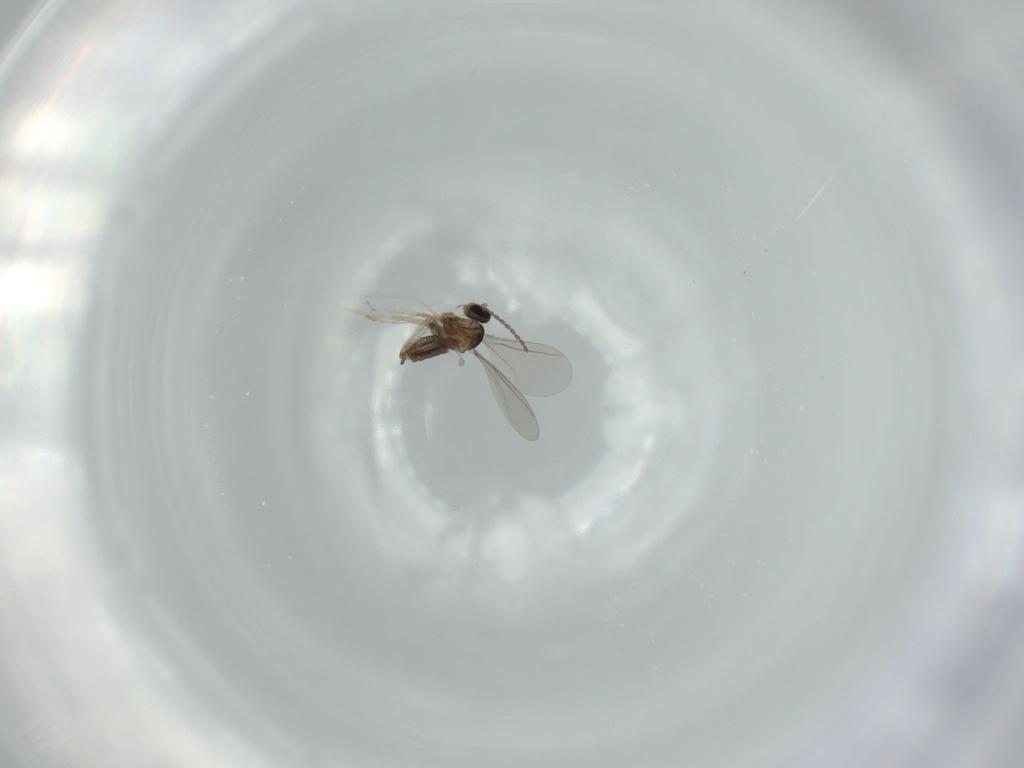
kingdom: Animalia
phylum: Arthropoda
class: Insecta
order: Diptera
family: Cecidomyiidae
